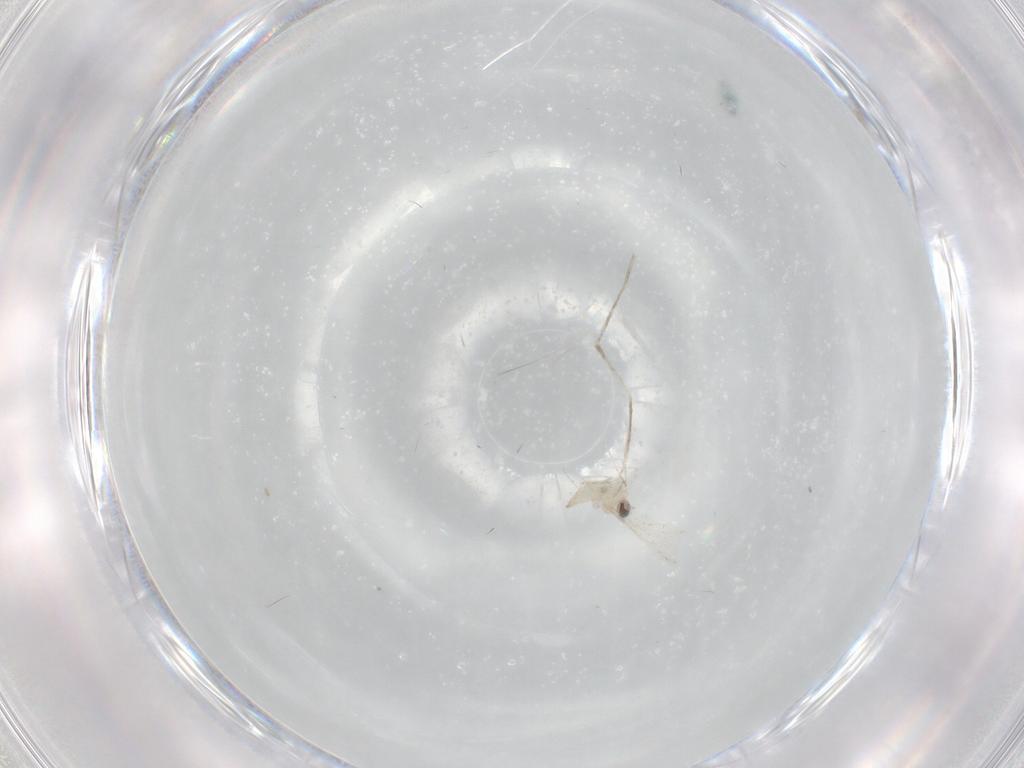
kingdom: Animalia
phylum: Arthropoda
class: Insecta
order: Diptera
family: Cecidomyiidae
